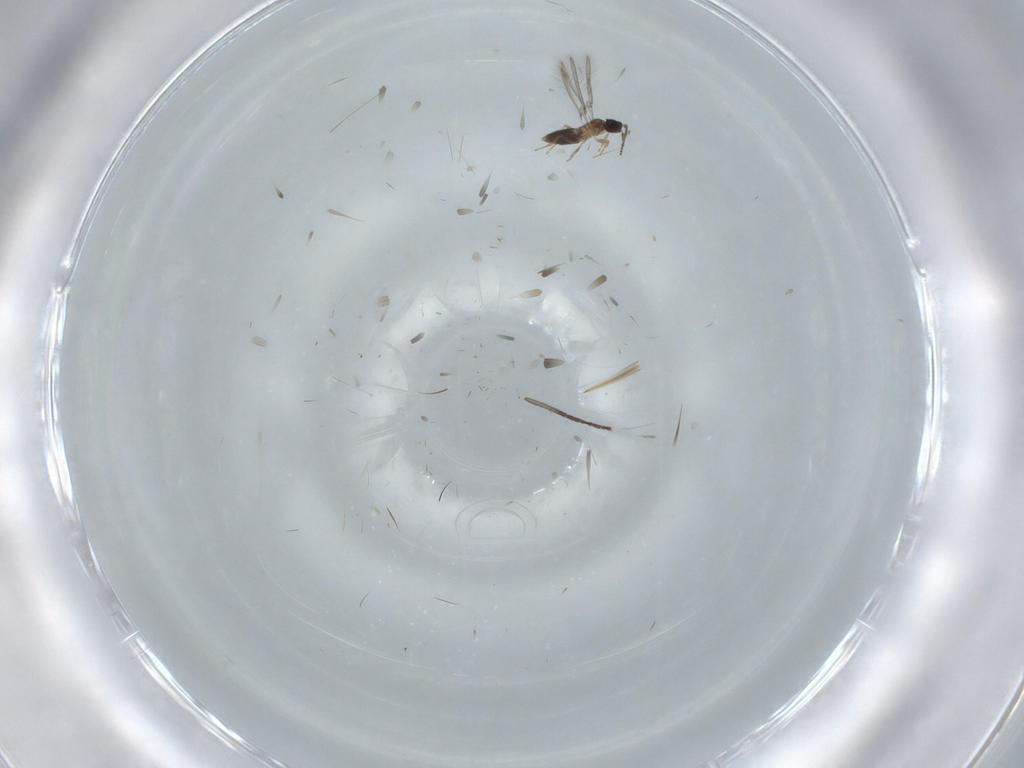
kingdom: Animalia
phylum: Arthropoda
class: Insecta
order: Hymenoptera
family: Mymaridae
